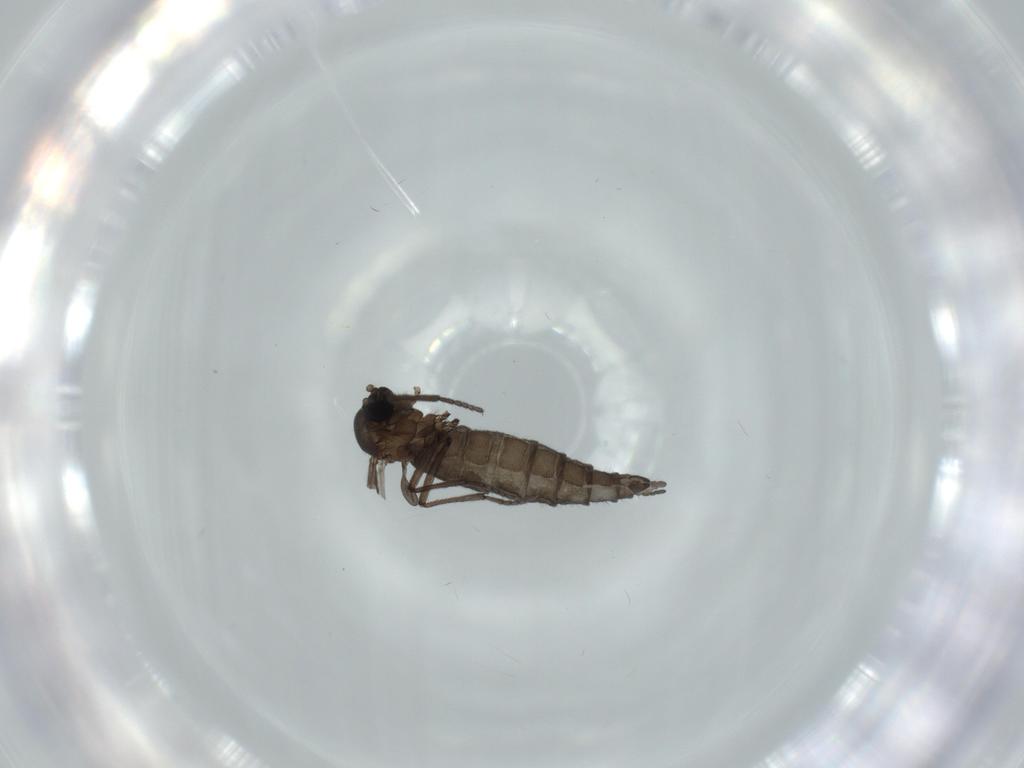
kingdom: Animalia
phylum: Arthropoda
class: Insecta
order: Diptera
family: Sciaridae
